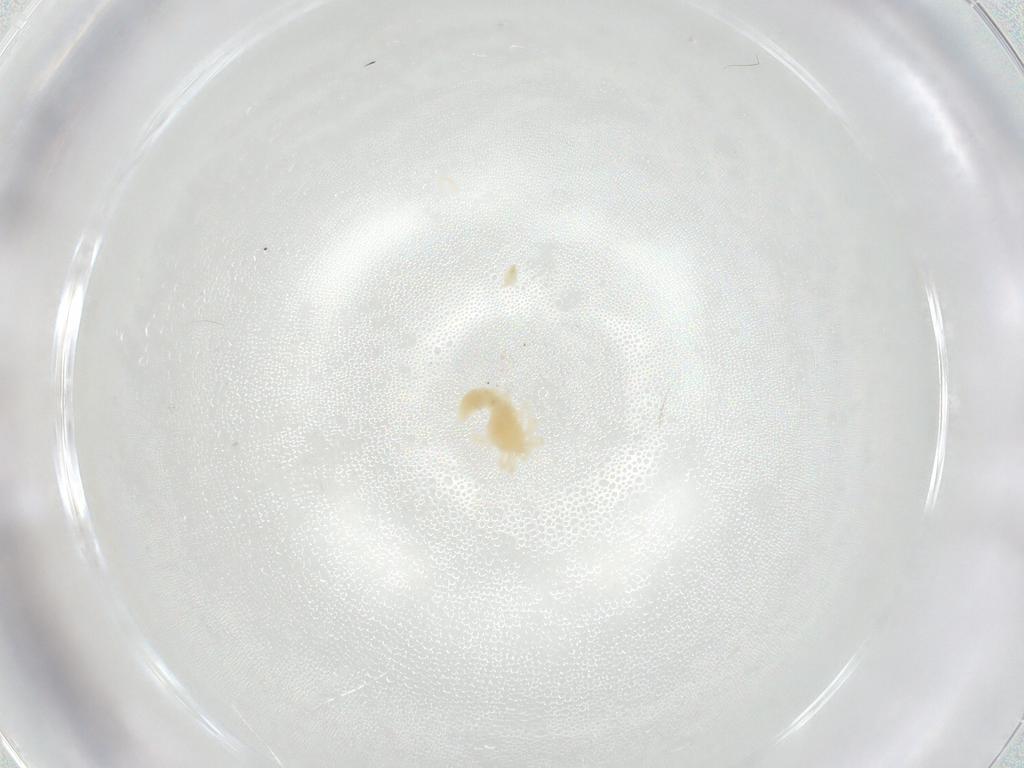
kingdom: Animalia
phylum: Arthropoda
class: Arachnida
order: Trombidiformes
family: Anystidae
